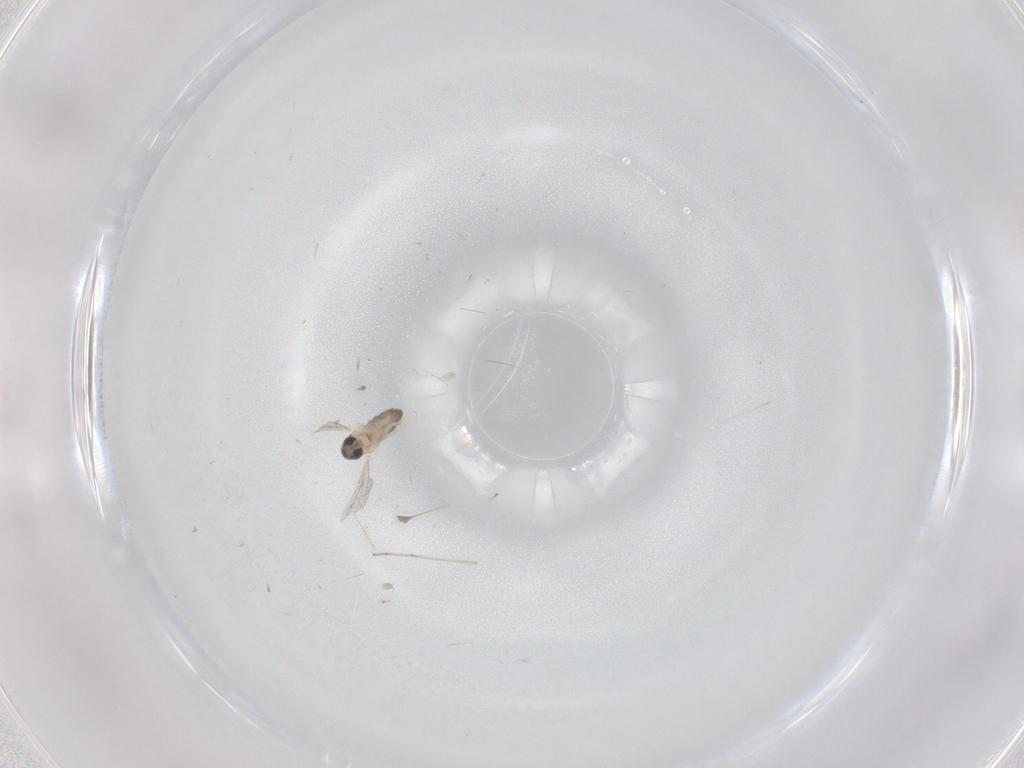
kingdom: Animalia
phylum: Arthropoda
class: Insecta
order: Diptera
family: Cecidomyiidae
